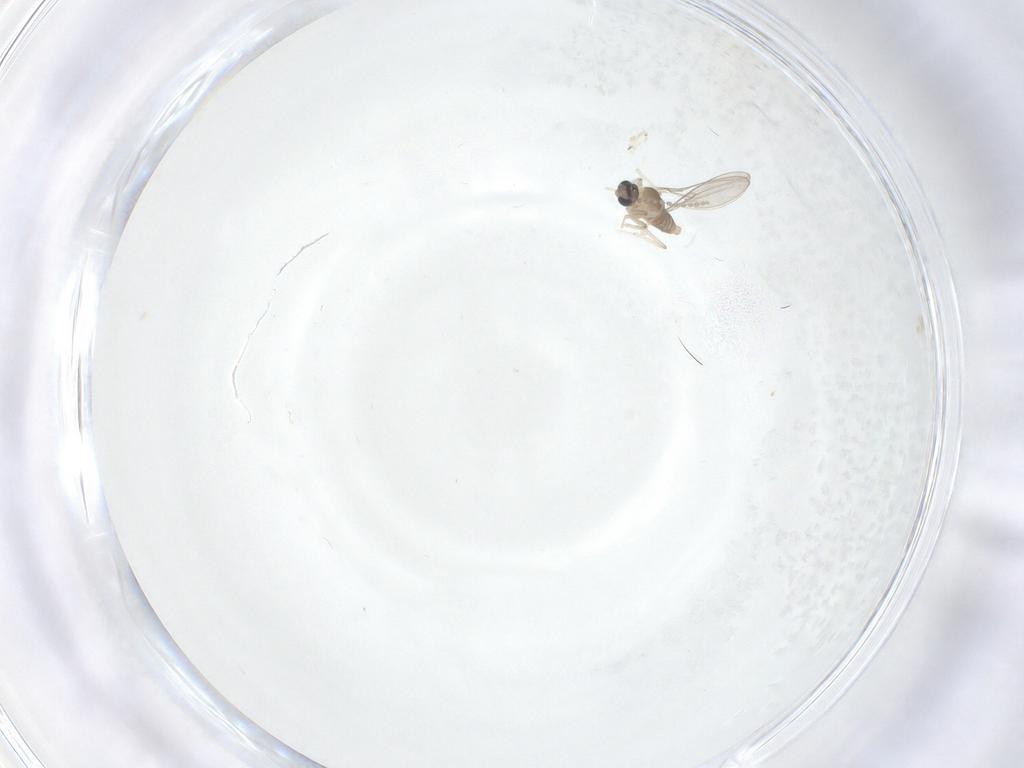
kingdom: Animalia
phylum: Arthropoda
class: Insecta
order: Diptera
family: Cecidomyiidae
